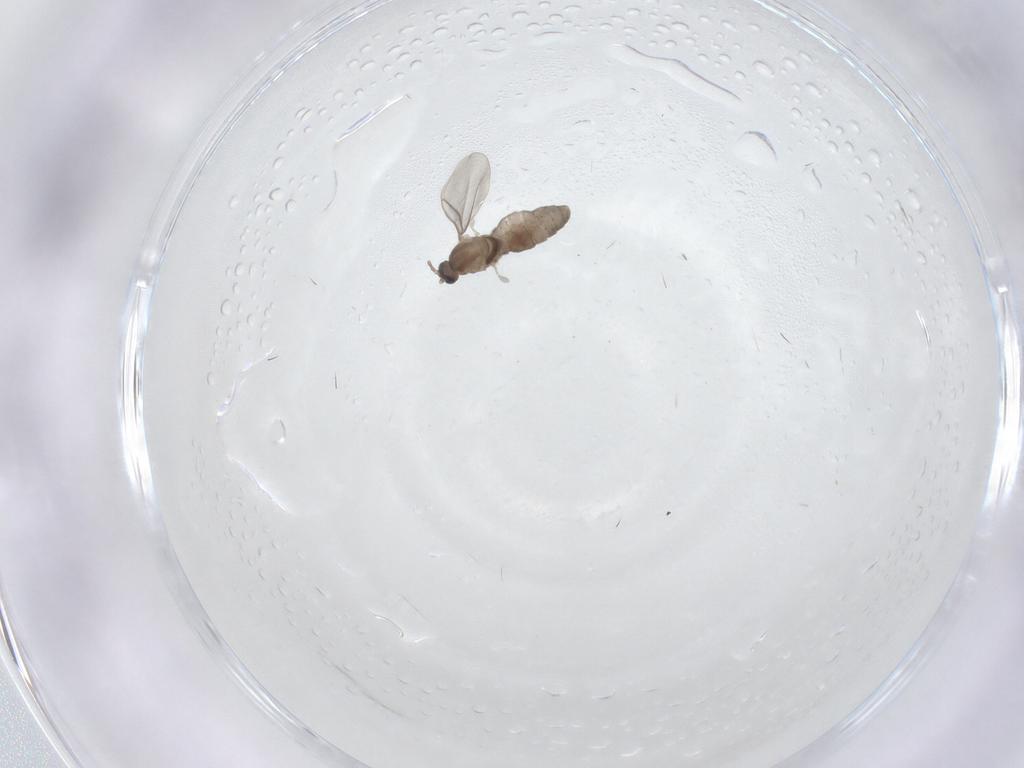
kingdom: Animalia
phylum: Arthropoda
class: Insecta
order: Diptera
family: Cecidomyiidae
